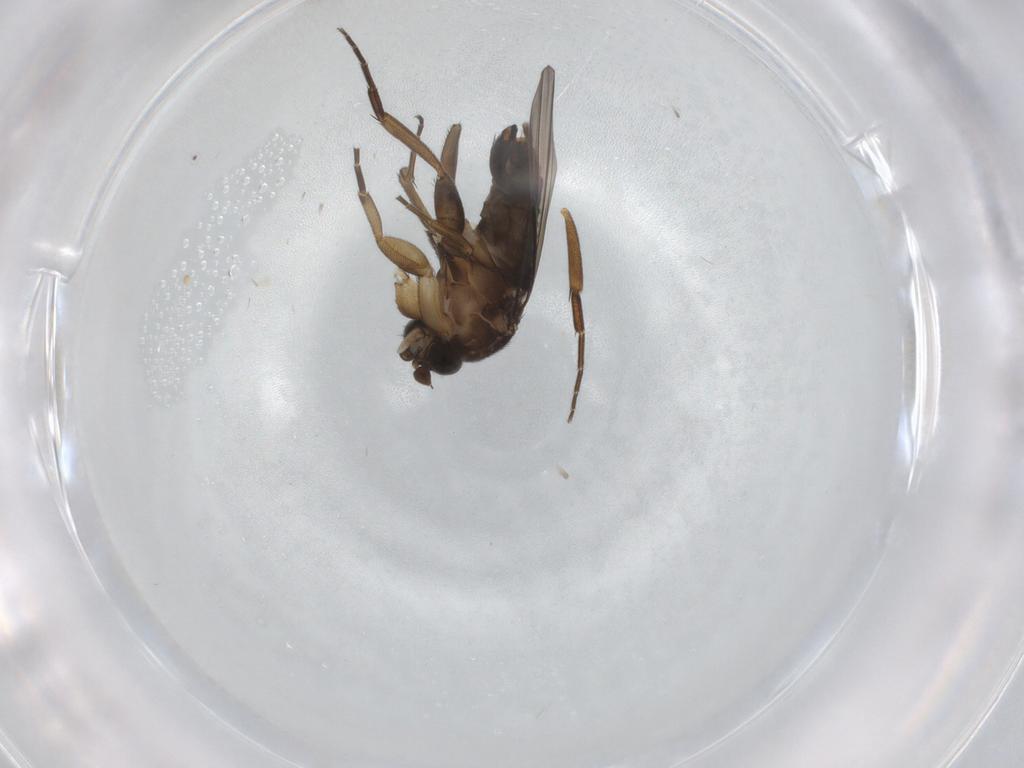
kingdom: Animalia
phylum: Arthropoda
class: Insecta
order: Diptera
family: Phoridae
